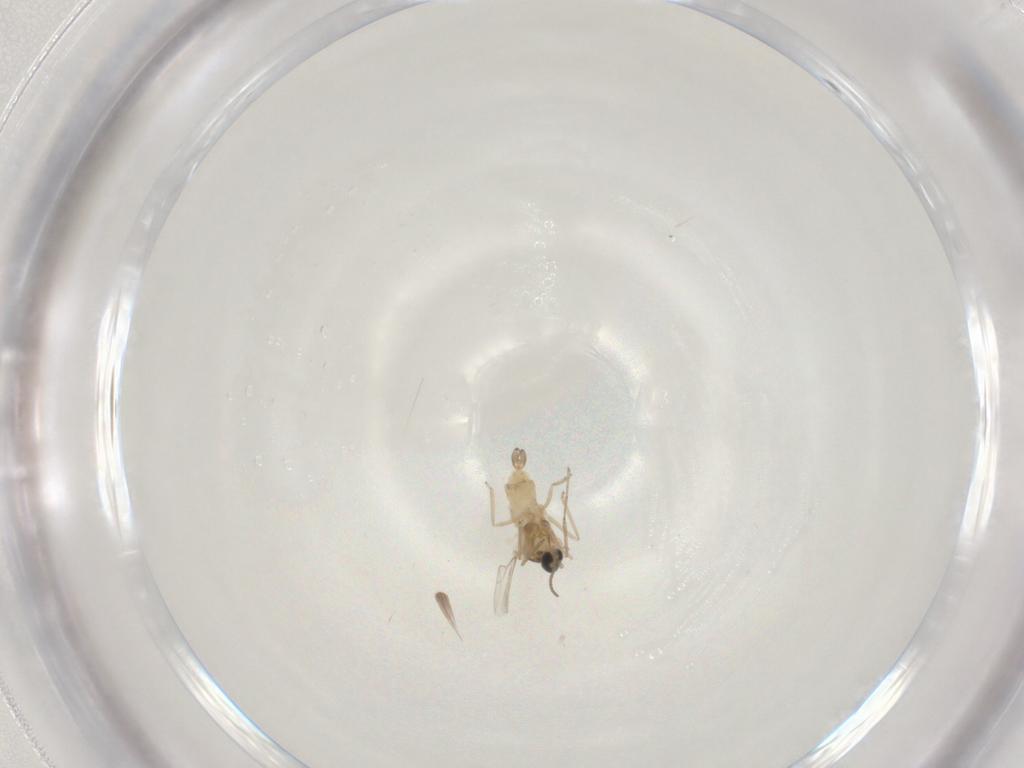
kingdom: Animalia
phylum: Arthropoda
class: Insecta
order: Diptera
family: Cecidomyiidae
